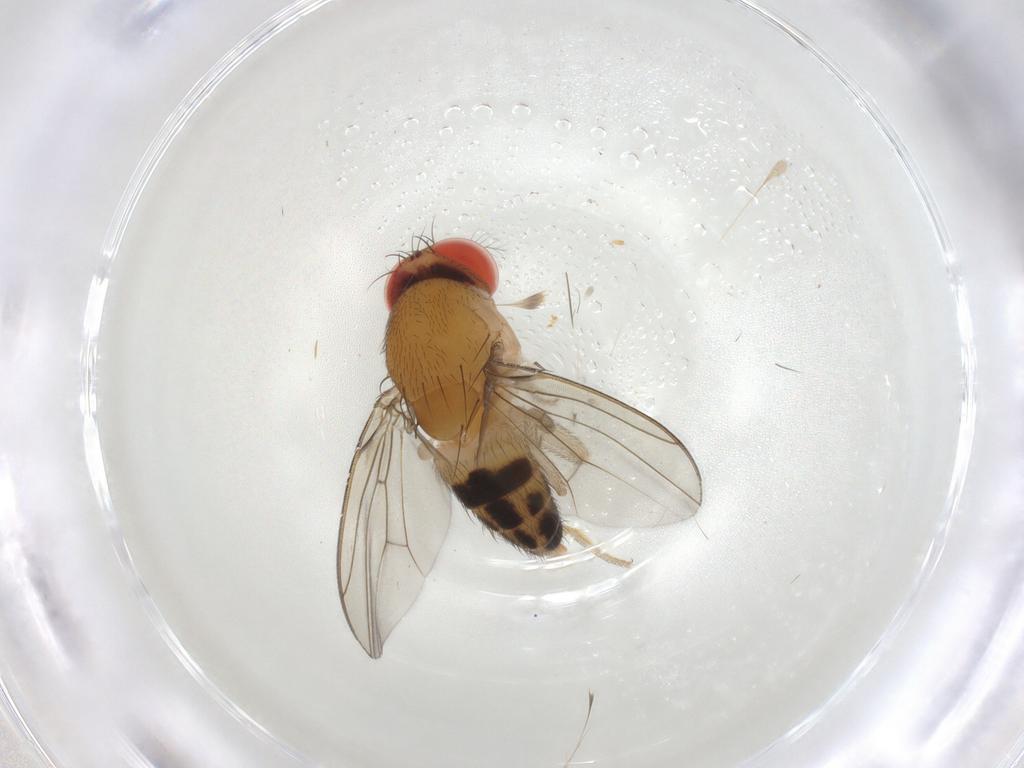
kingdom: Animalia
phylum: Arthropoda
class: Insecta
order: Diptera
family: Drosophilidae
